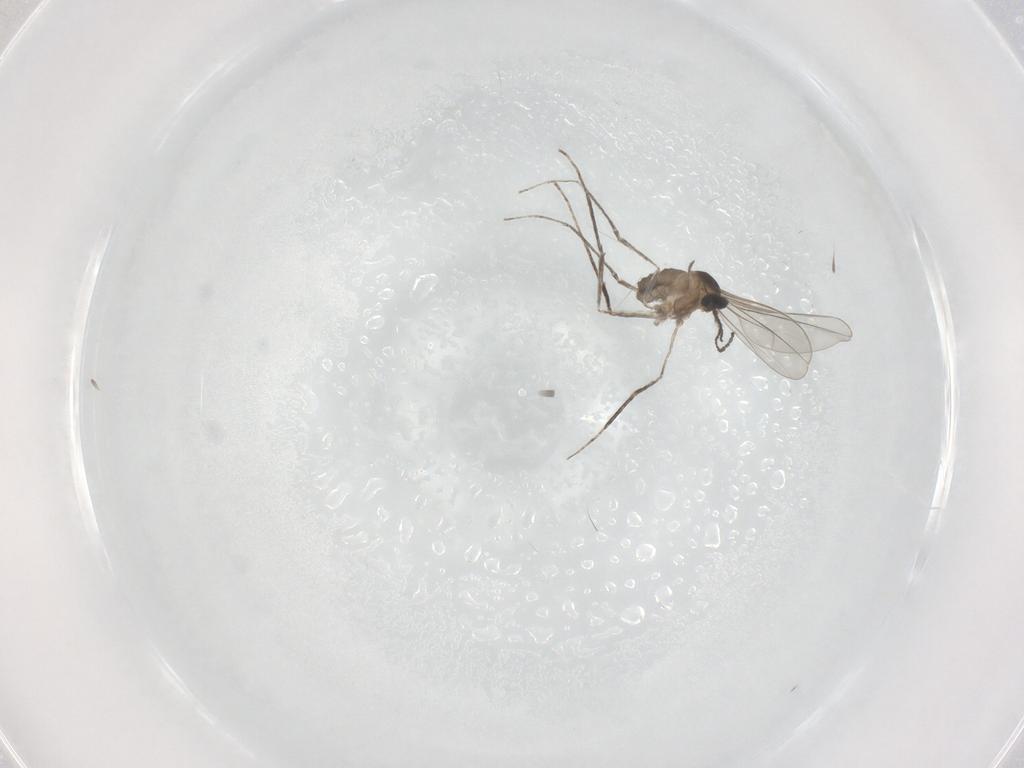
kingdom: Animalia
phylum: Arthropoda
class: Insecta
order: Diptera
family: Cecidomyiidae
